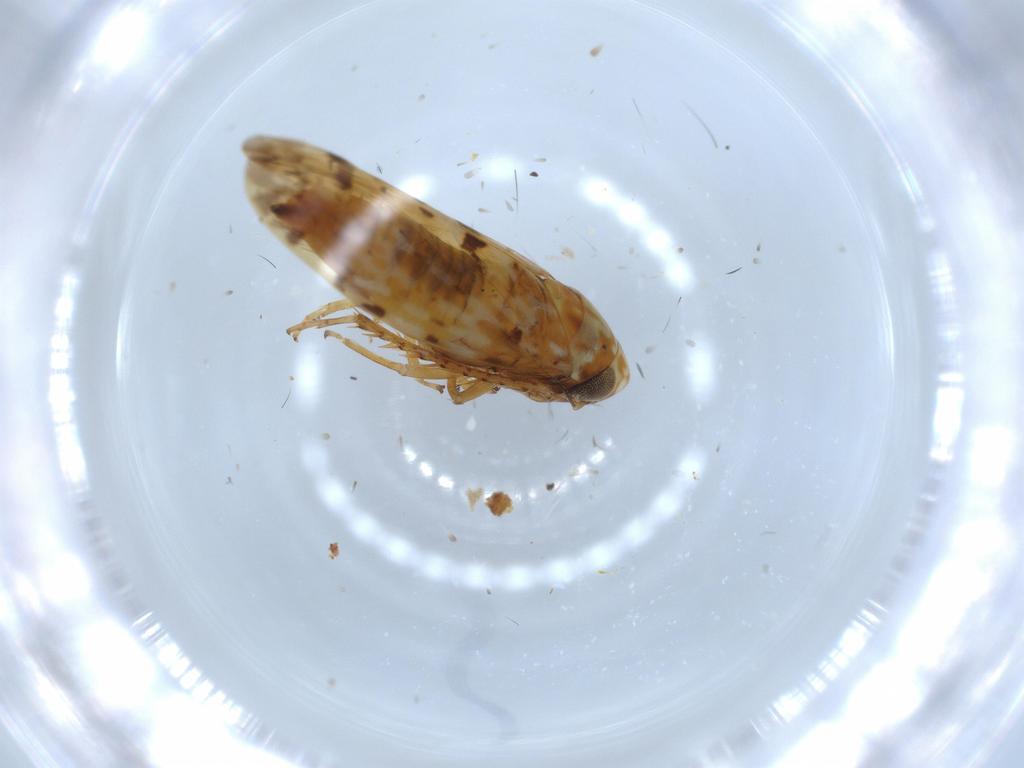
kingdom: Animalia
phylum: Arthropoda
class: Insecta
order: Hemiptera
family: Cicadellidae
